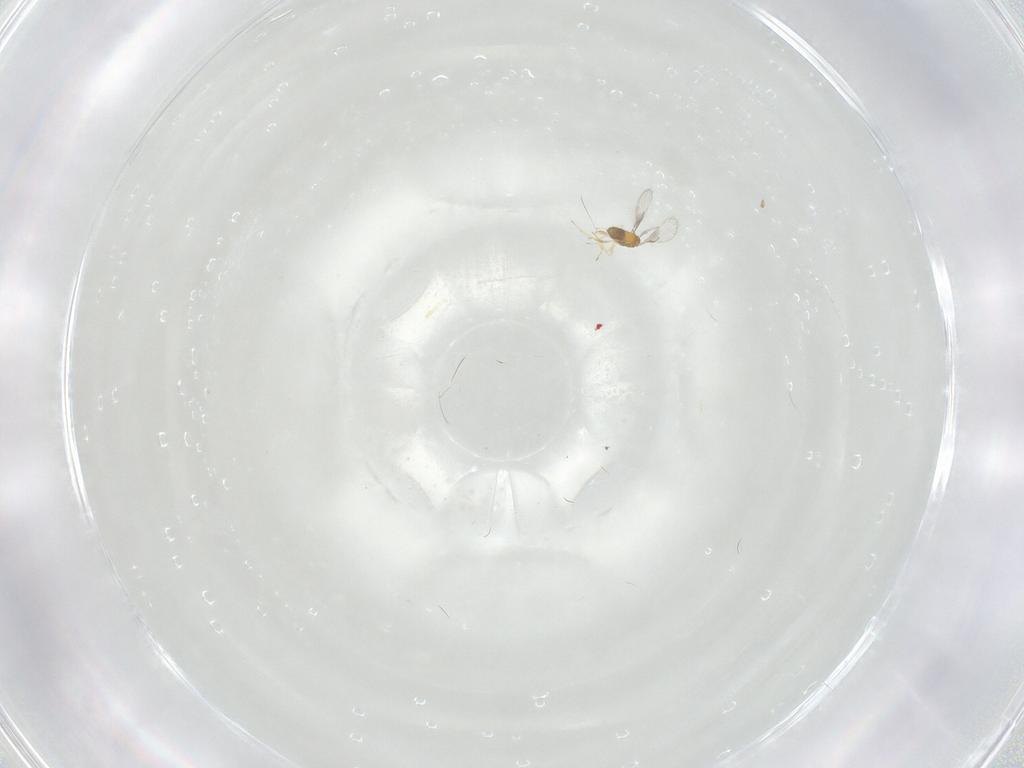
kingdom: Animalia
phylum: Arthropoda
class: Insecta
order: Hymenoptera
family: Trichogrammatidae
